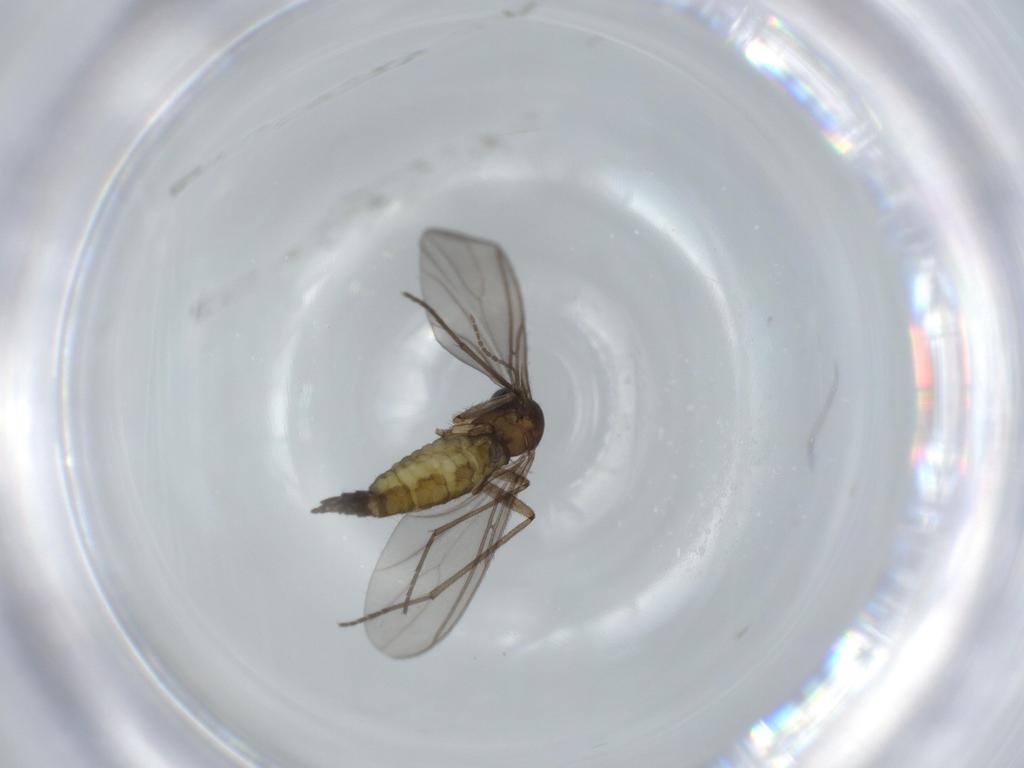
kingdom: Animalia
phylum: Arthropoda
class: Insecta
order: Diptera
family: Sciaridae
